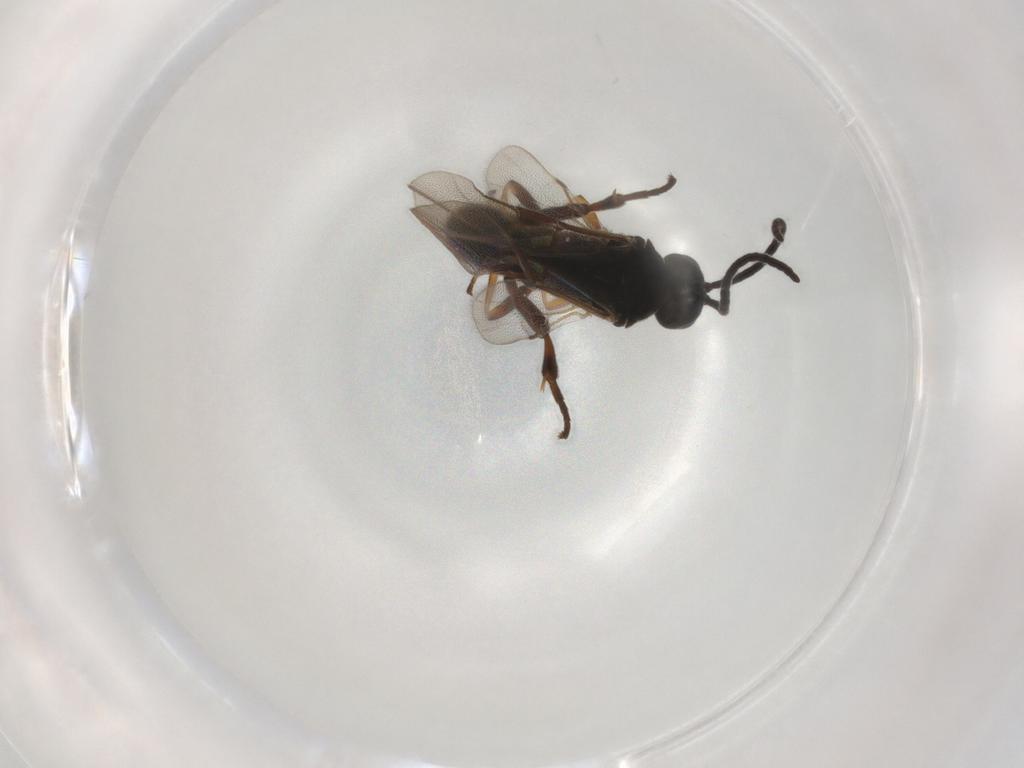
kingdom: Animalia
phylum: Arthropoda
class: Insecta
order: Hymenoptera
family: Braconidae
